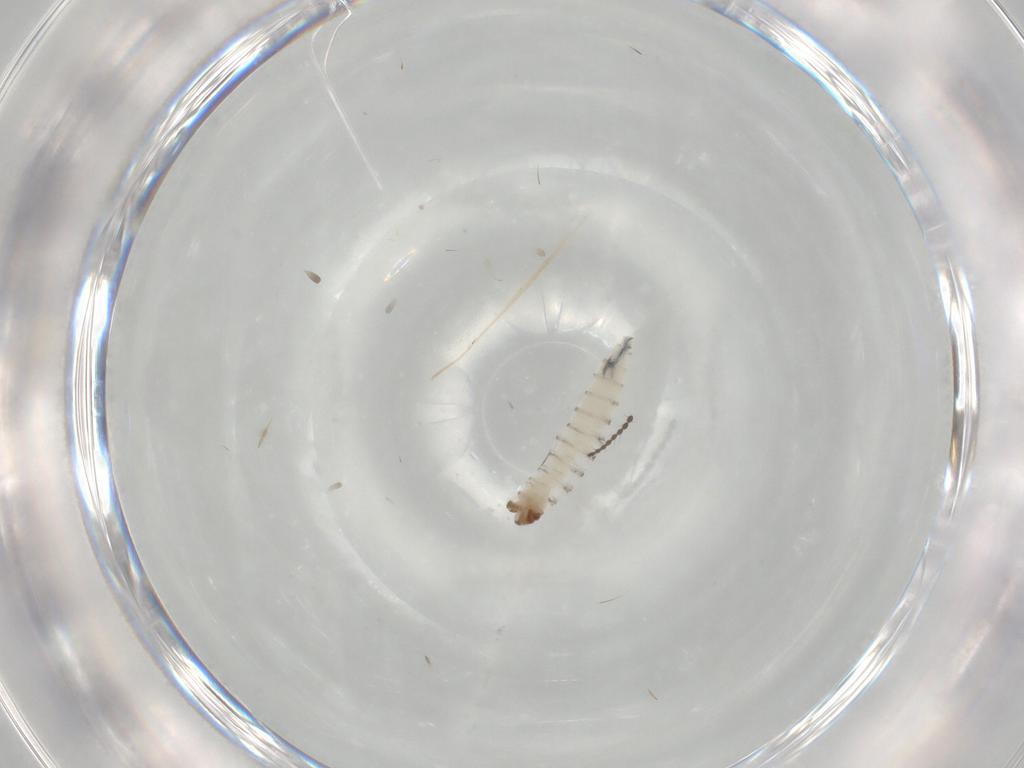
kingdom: Animalia
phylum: Arthropoda
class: Insecta
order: Diptera
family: Sarcophagidae
